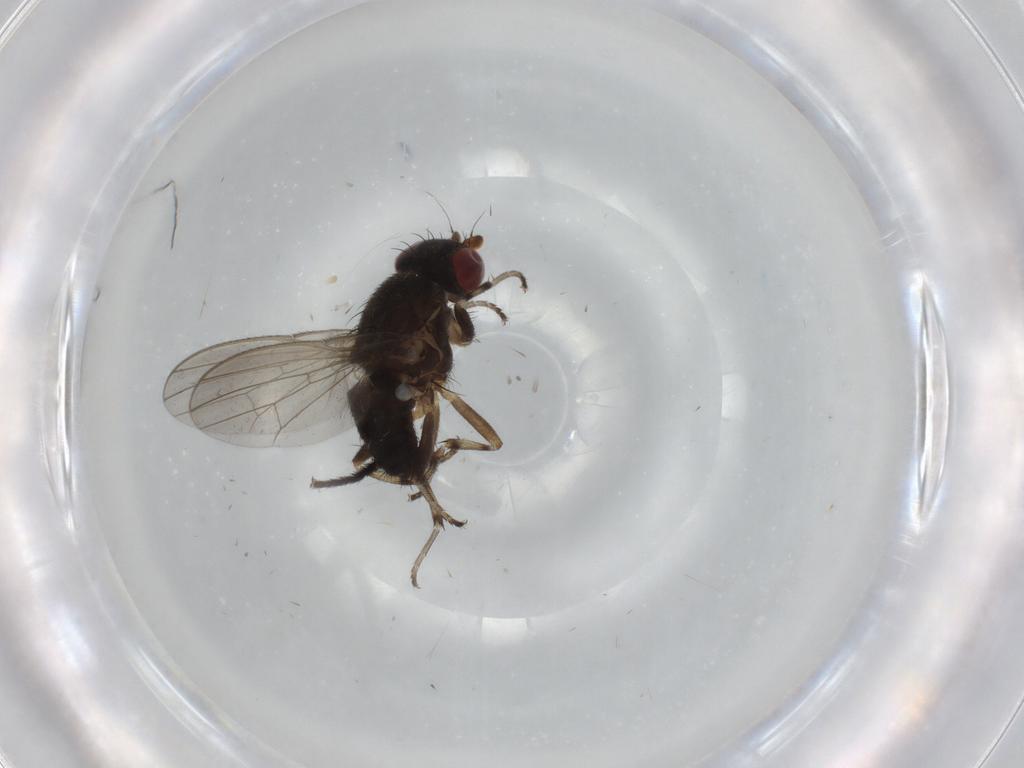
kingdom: Animalia
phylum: Arthropoda
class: Insecta
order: Diptera
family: Heleomyzidae
